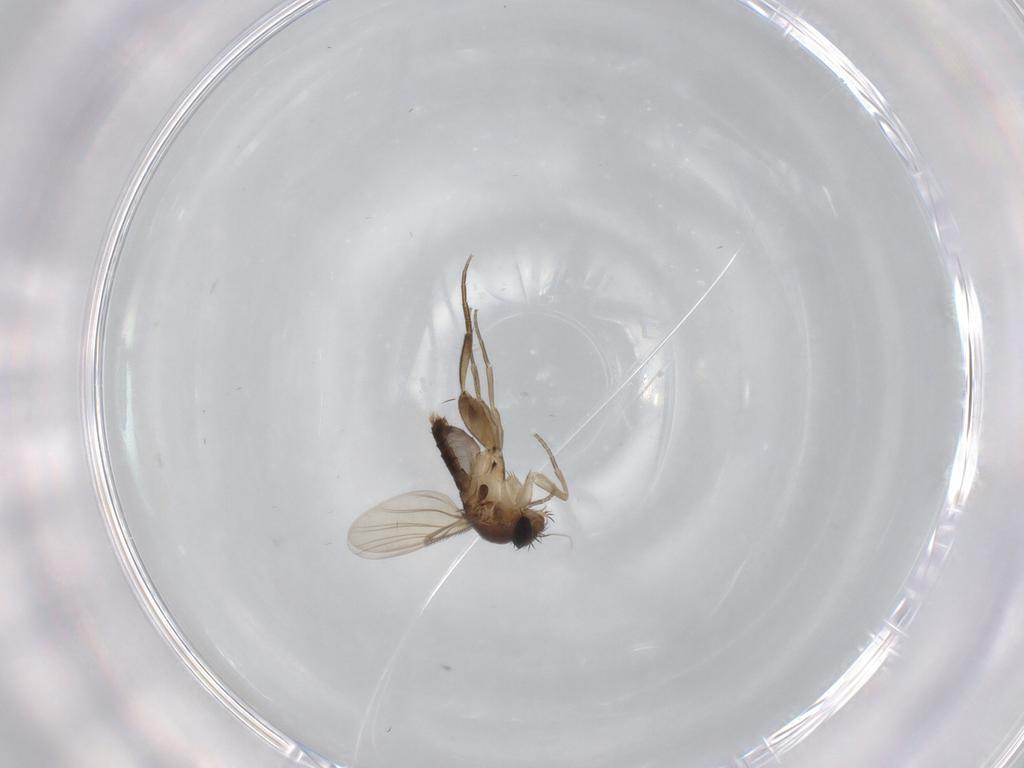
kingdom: Animalia
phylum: Arthropoda
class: Insecta
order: Diptera
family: Phoridae
